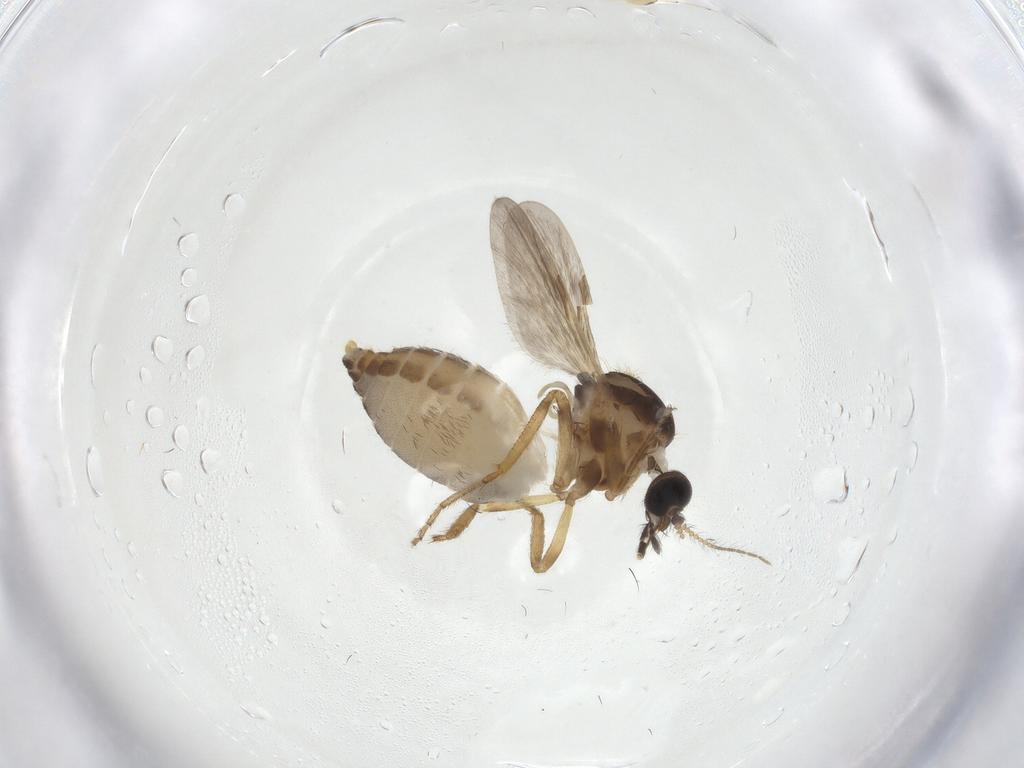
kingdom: Animalia
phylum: Arthropoda
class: Insecta
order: Diptera
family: Ceratopogonidae
